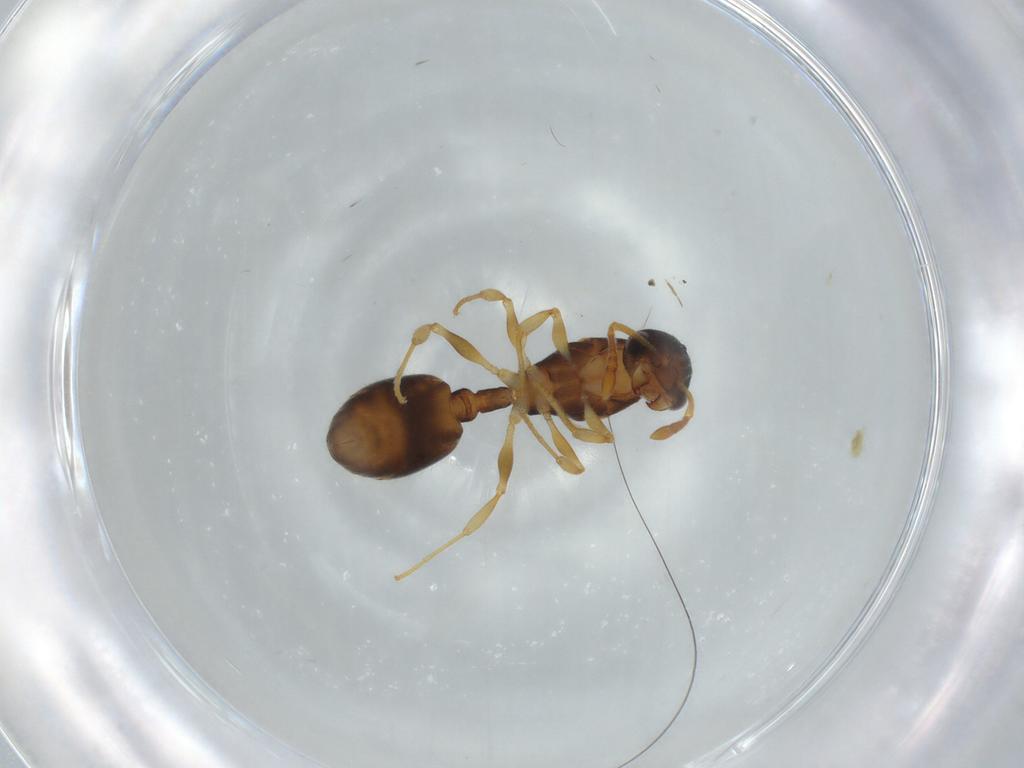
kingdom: Animalia
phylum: Arthropoda
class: Insecta
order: Hymenoptera
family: Formicidae
